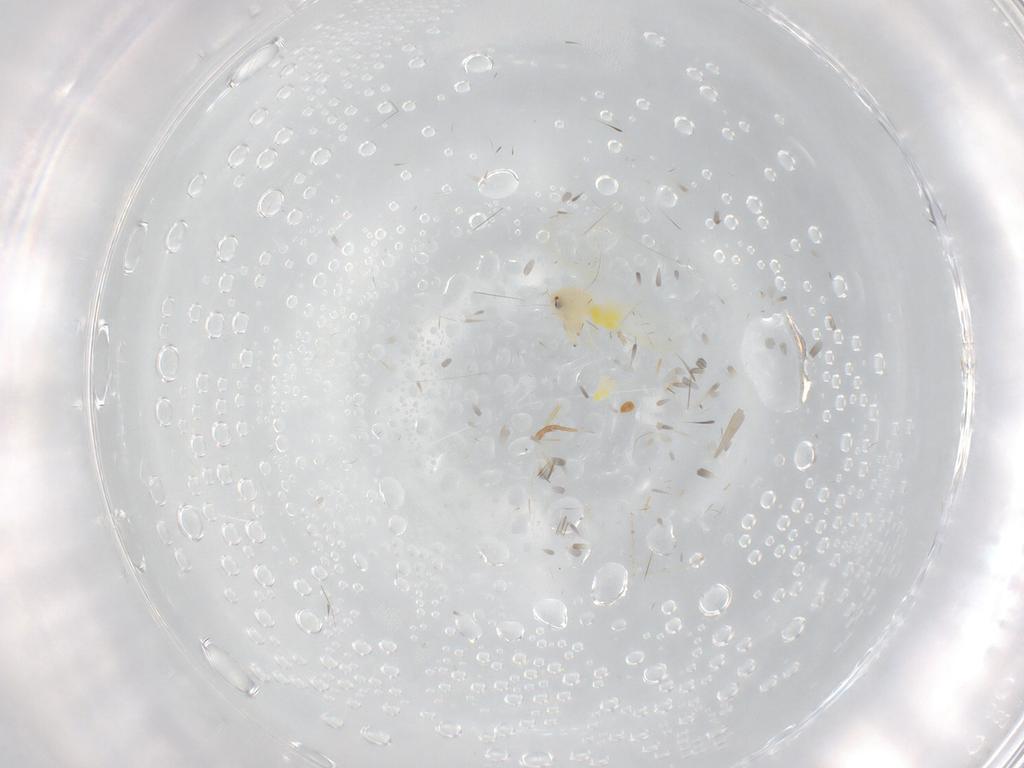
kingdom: Animalia
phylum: Arthropoda
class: Insecta
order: Hemiptera
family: Aleyrodidae
